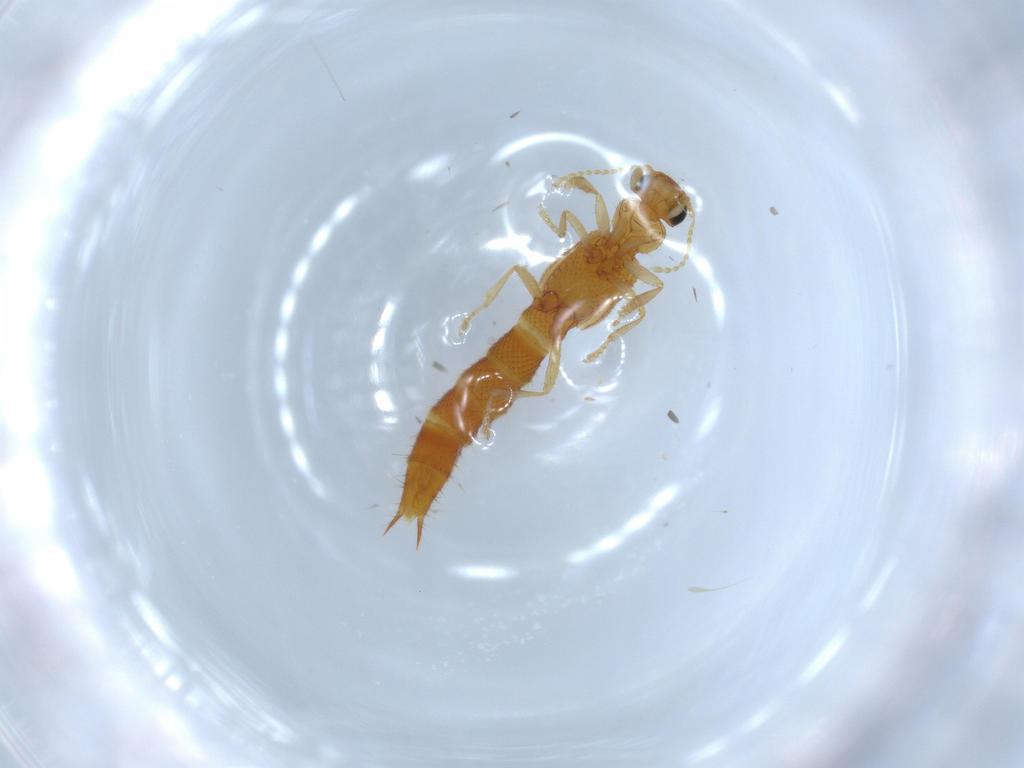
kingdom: Animalia
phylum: Arthropoda
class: Insecta
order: Coleoptera
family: Staphylinidae
